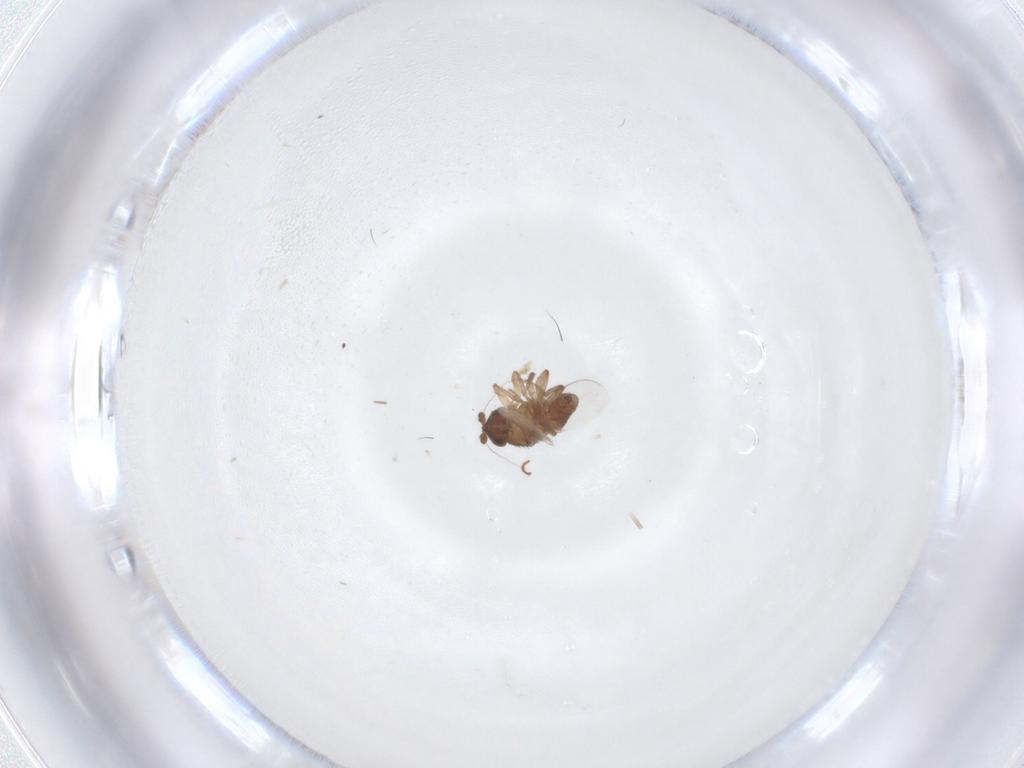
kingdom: Animalia
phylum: Arthropoda
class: Insecta
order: Diptera
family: Sphaeroceridae
